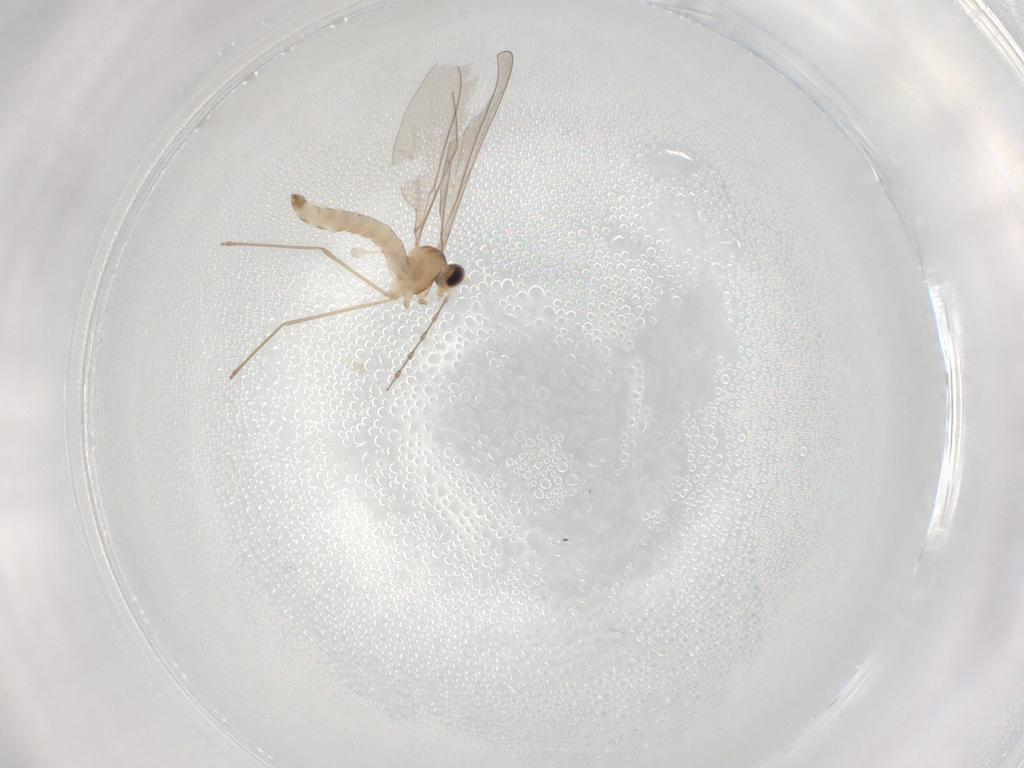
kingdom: Animalia
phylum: Arthropoda
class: Insecta
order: Diptera
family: Cecidomyiidae
